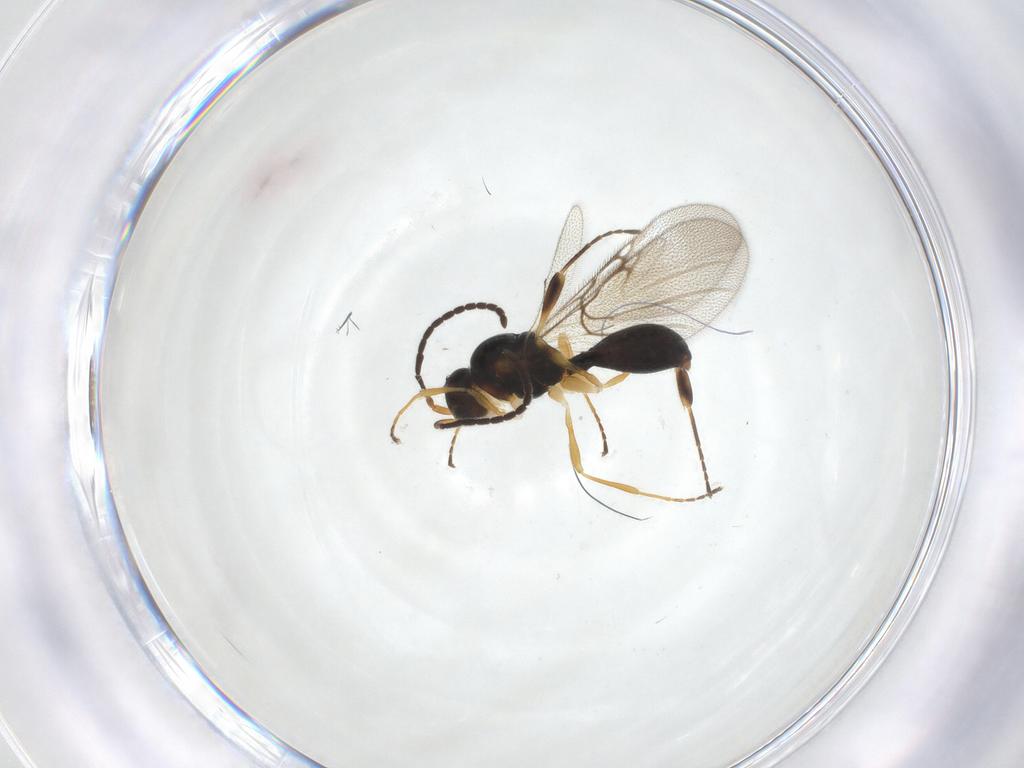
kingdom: Animalia
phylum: Arthropoda
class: Insecta
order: Hymenoptera
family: Diapriidae
